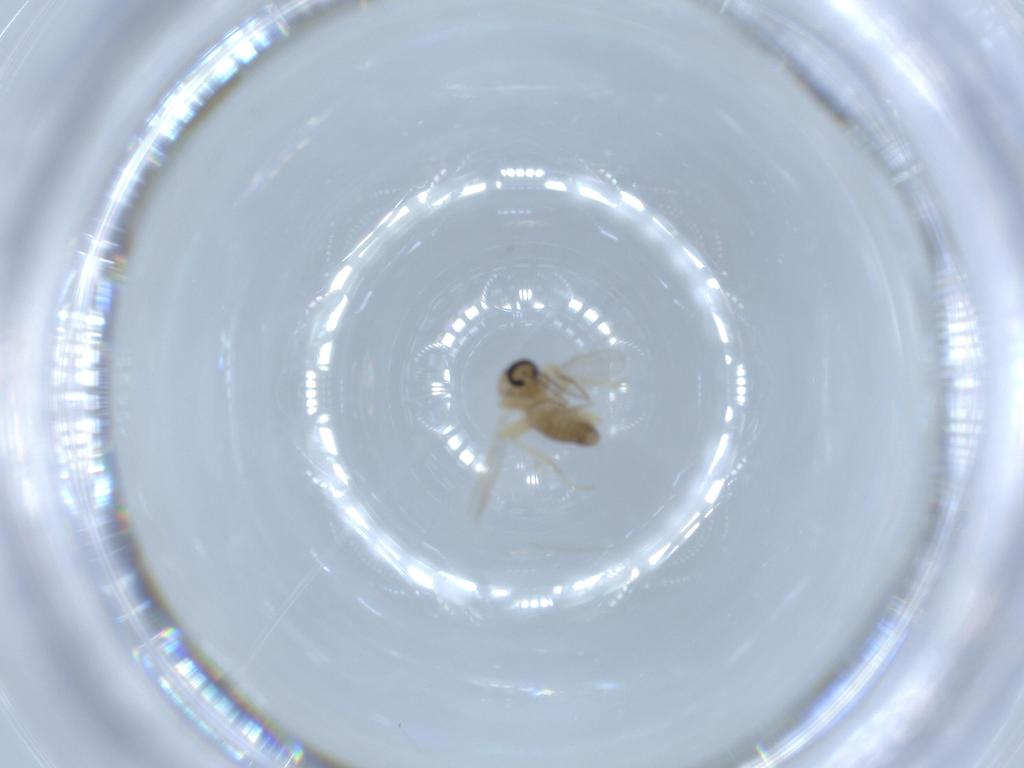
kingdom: Animalia
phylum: Arthropoda
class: Insecta
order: Diptera
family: Ceratopogonidae
